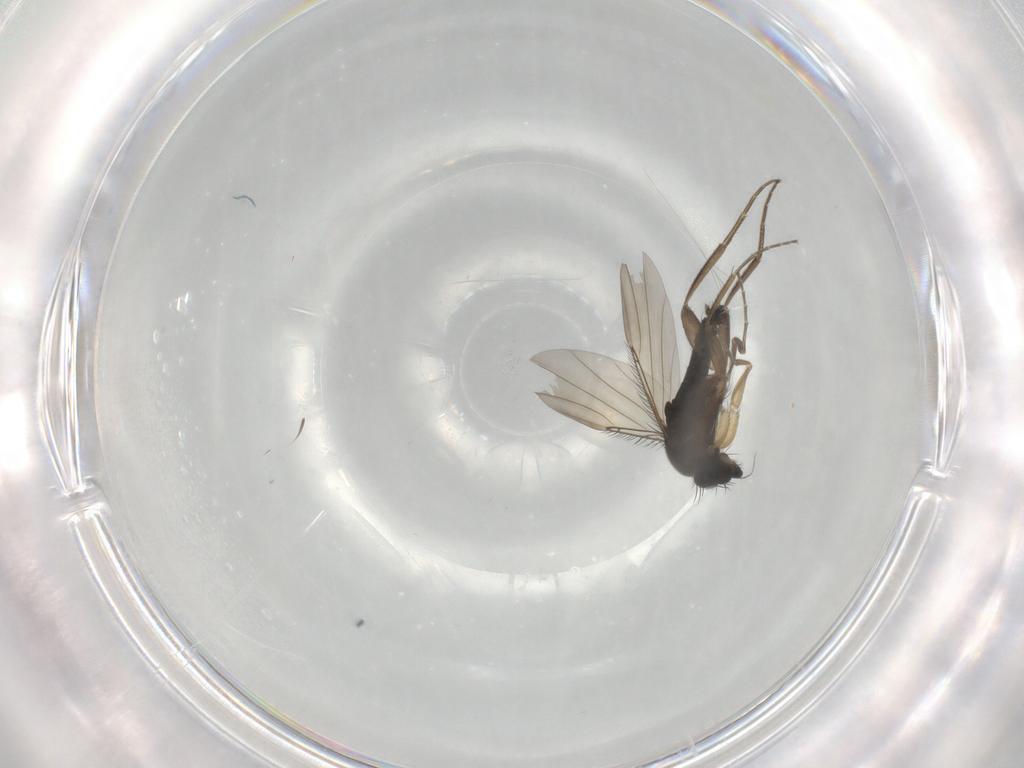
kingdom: Animalia
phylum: Arthropoda
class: Insecta
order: Diptera
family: Phoridae
